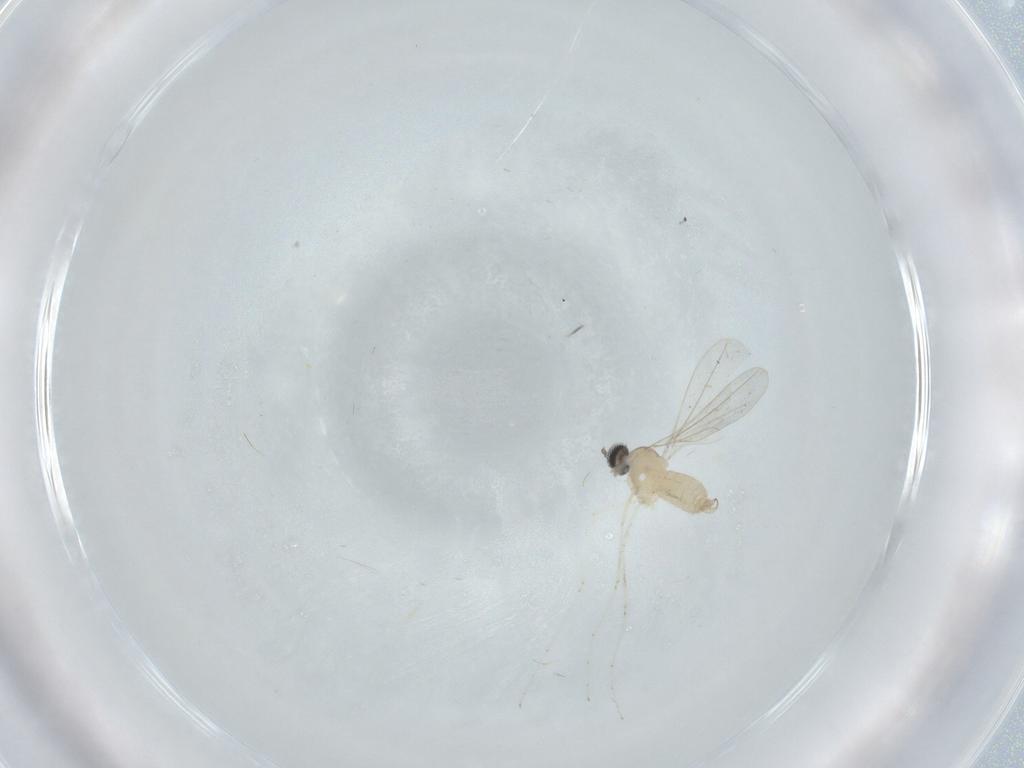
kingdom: Animalia
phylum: Arthropoda
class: Insecta
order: Diptera
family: Cecidomyiidae
